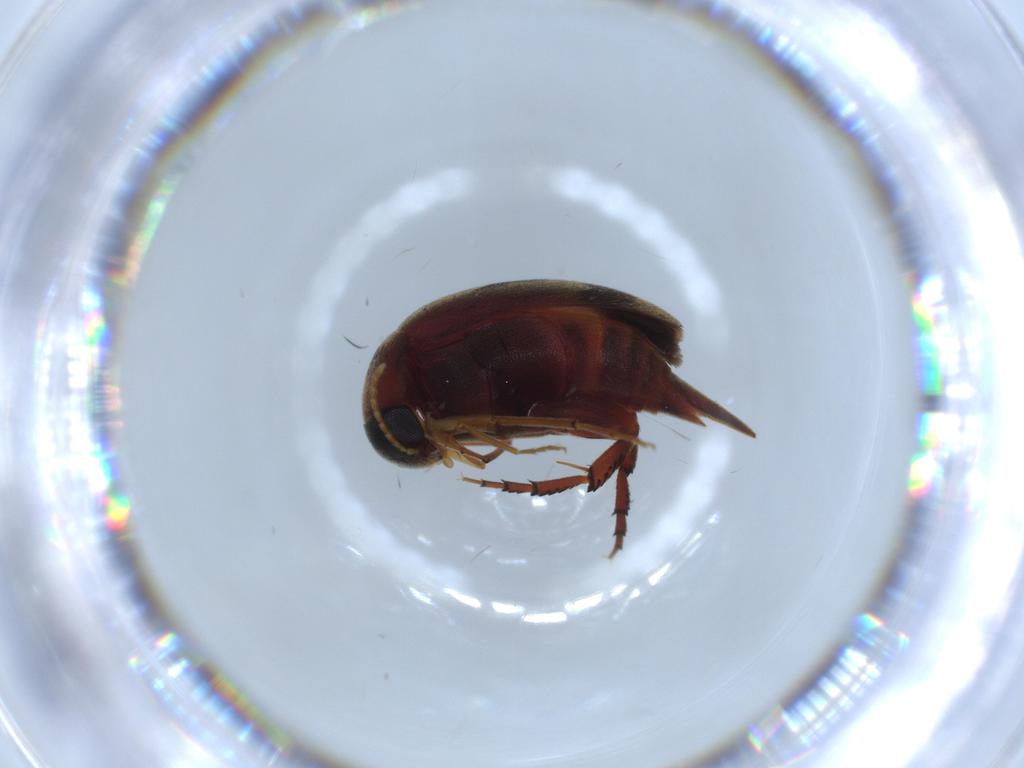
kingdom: Animalia
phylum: Arthropoda
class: Insecta
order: Coleoptera
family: Mordellidae
